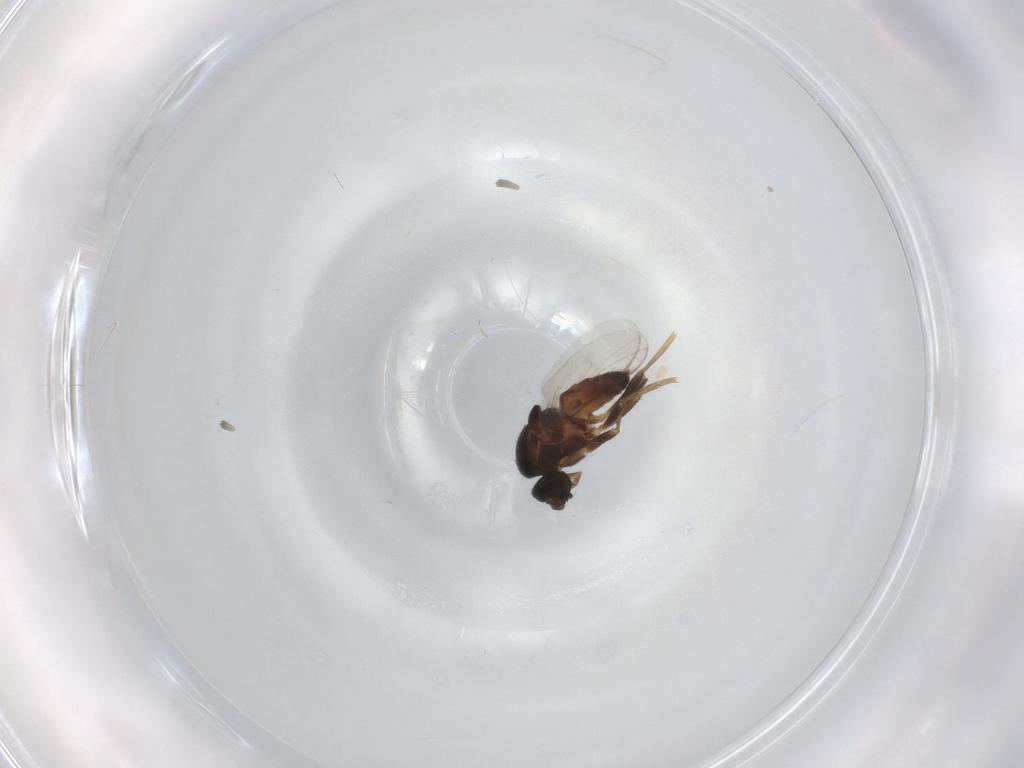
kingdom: Animalia
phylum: Arthropoda
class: Insecta
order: Diptera
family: Sphaeroceridae
